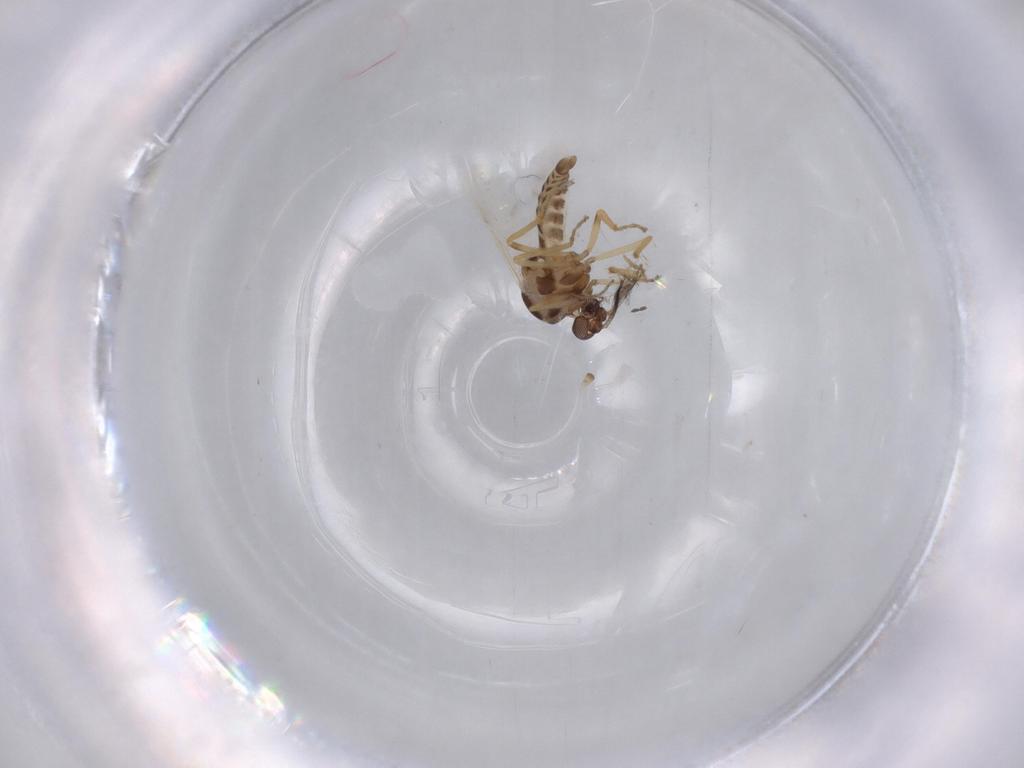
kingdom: Animalia
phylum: Arthropoda
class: Insecta
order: Diptera
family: Ceratopogonidae
